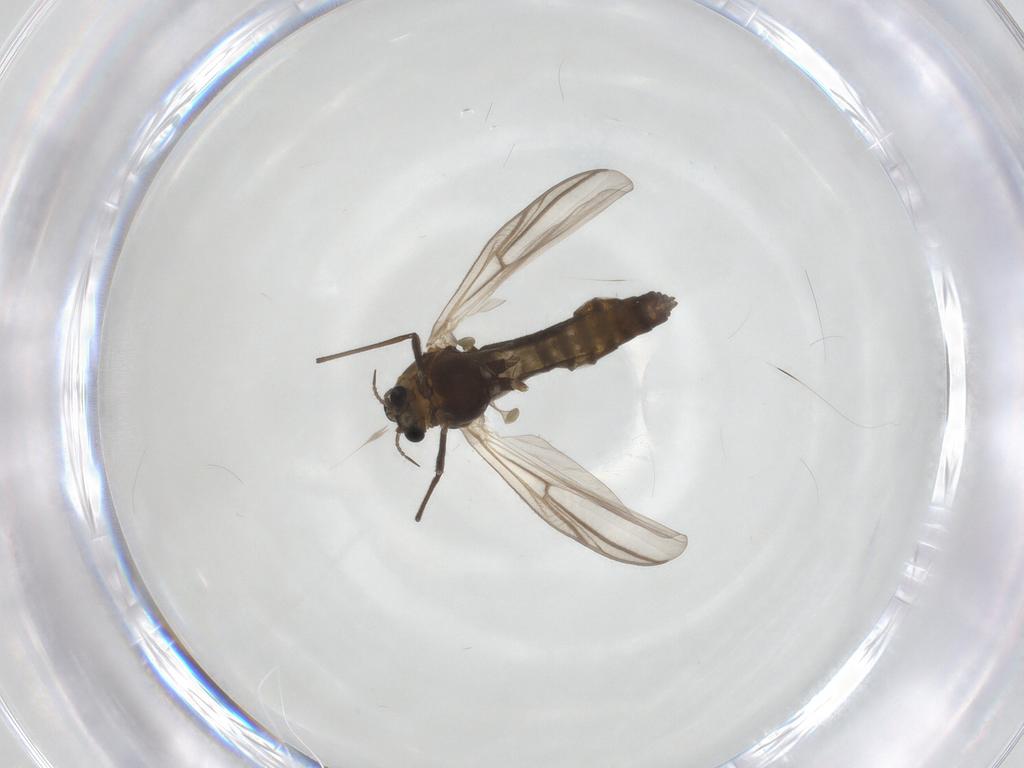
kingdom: Animalia
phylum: Arthropoda
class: Insecta
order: Diptera
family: Chironomidae
